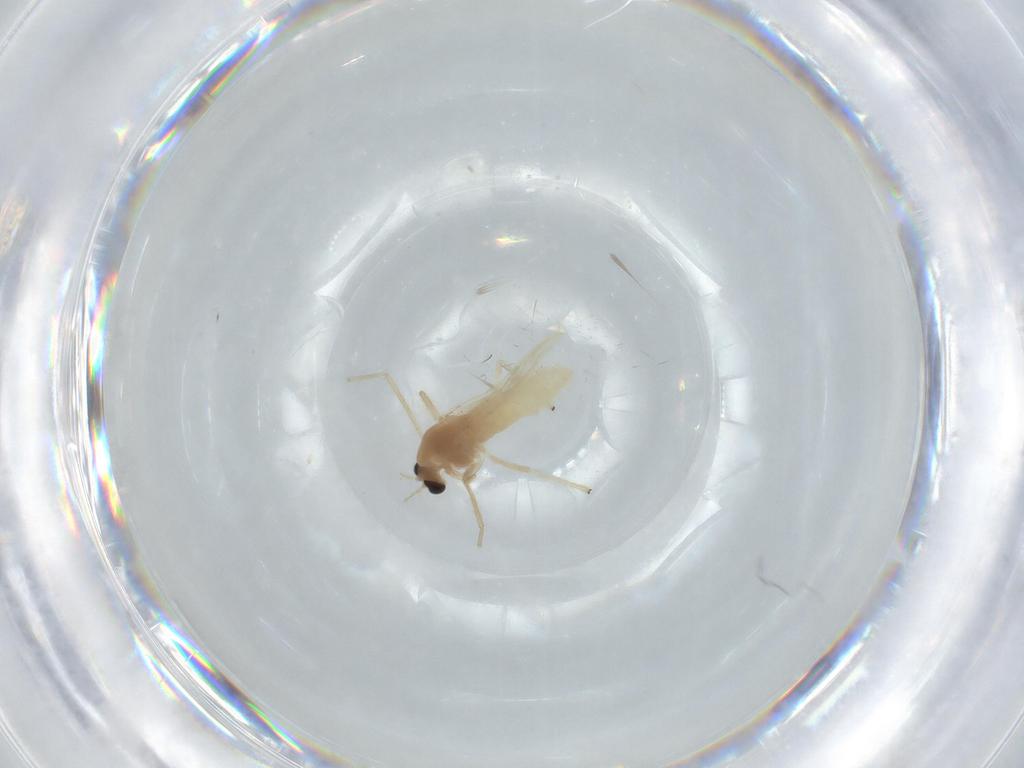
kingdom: Animalia
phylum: Arthropoda
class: Insecta
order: Diptera
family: Chironomidae
